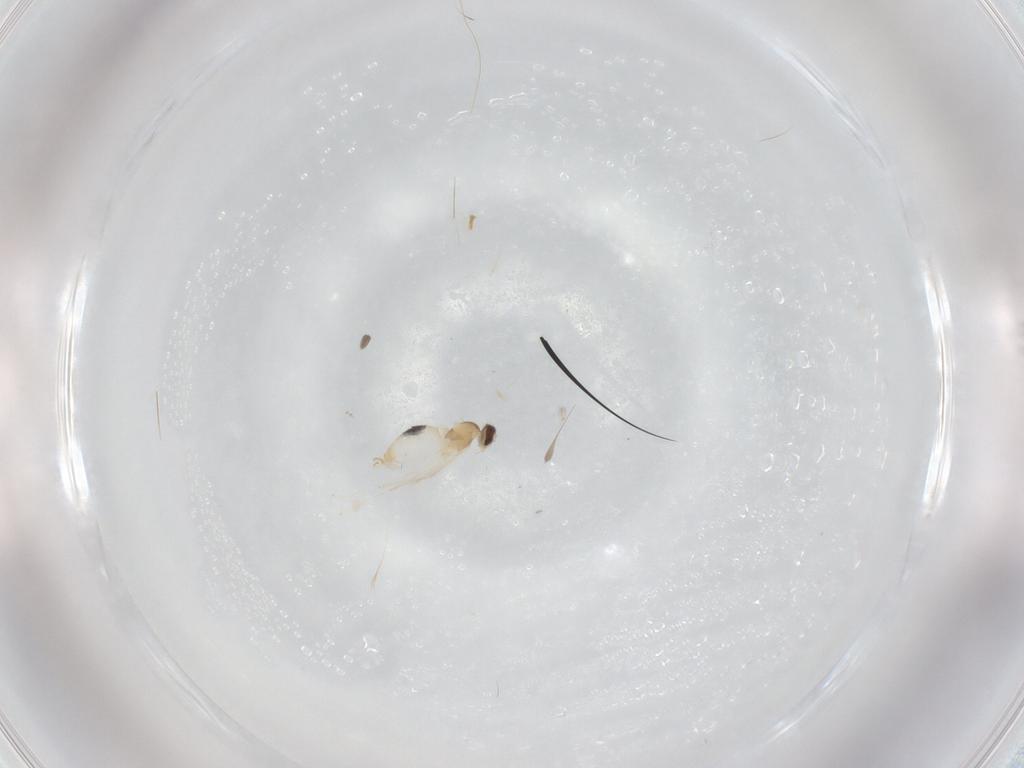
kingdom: Animalia
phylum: Arthropoda
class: Insecta
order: Diptera
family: Cecidomyiidae
